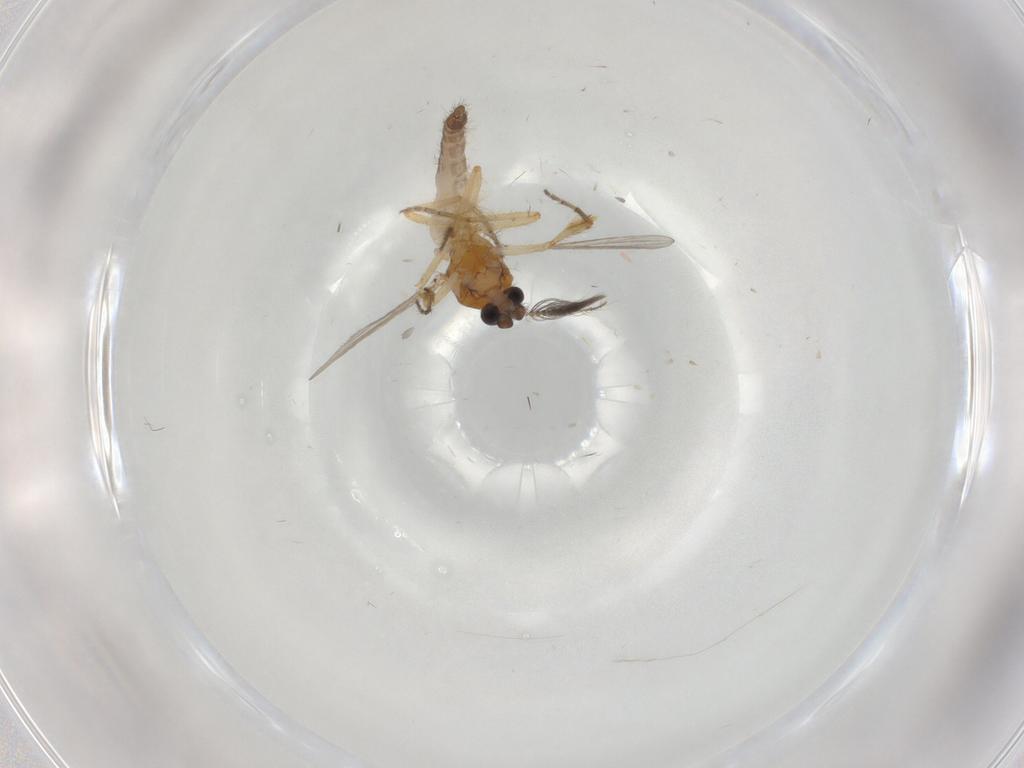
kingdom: Animalia
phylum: Arthropoda
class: Insecta
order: Diptera
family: Ceratopogonidae
